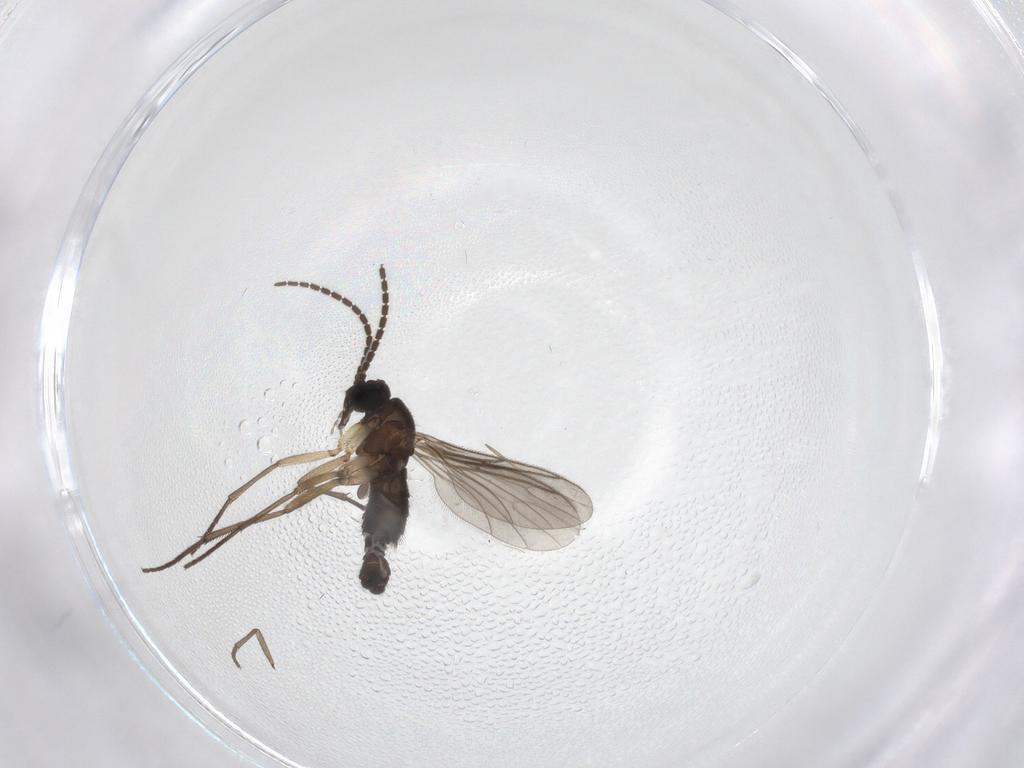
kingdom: Animalia
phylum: Arthropoda
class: Insecta
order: Diptera
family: Sciaridae
